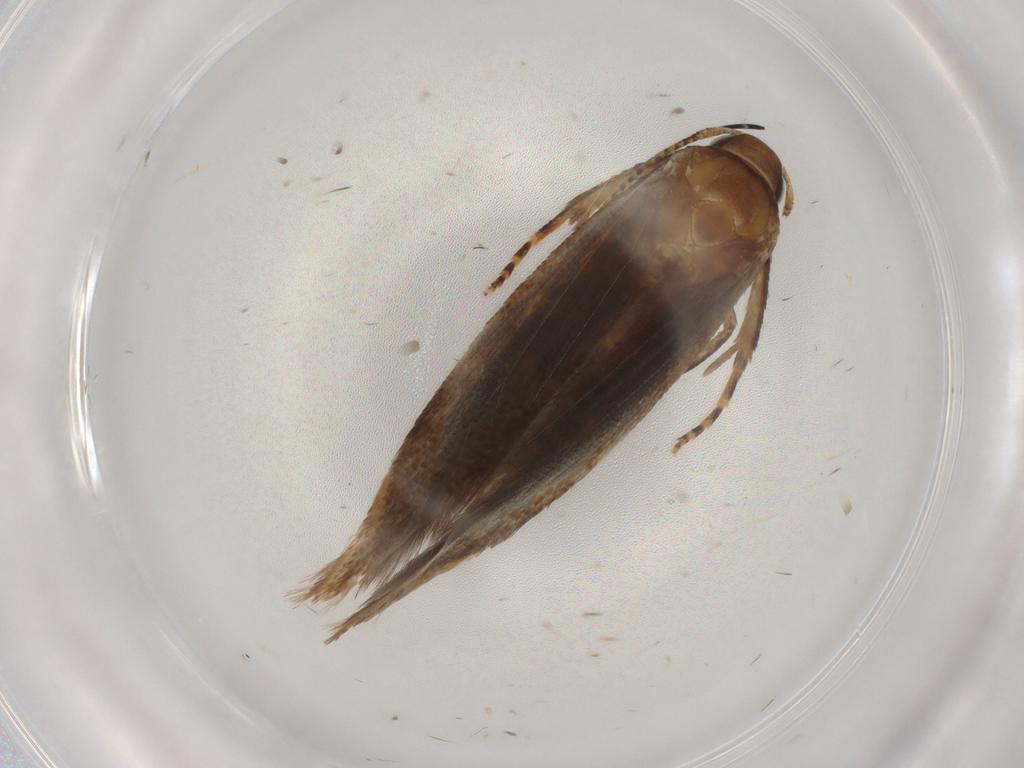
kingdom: Animalia
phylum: Arthropoda
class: Insecta
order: Lepidoptera
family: Gelechiidae
